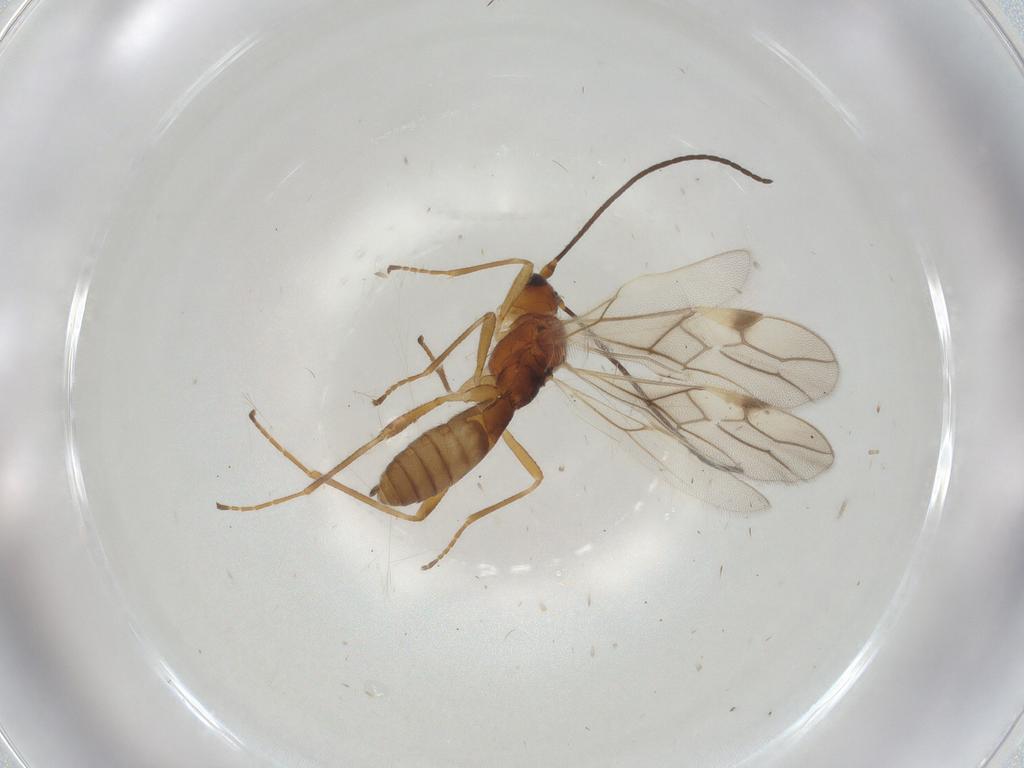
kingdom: Animalia
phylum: Arthropoda
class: Insecta
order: Hymenoptera
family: Braconidae
